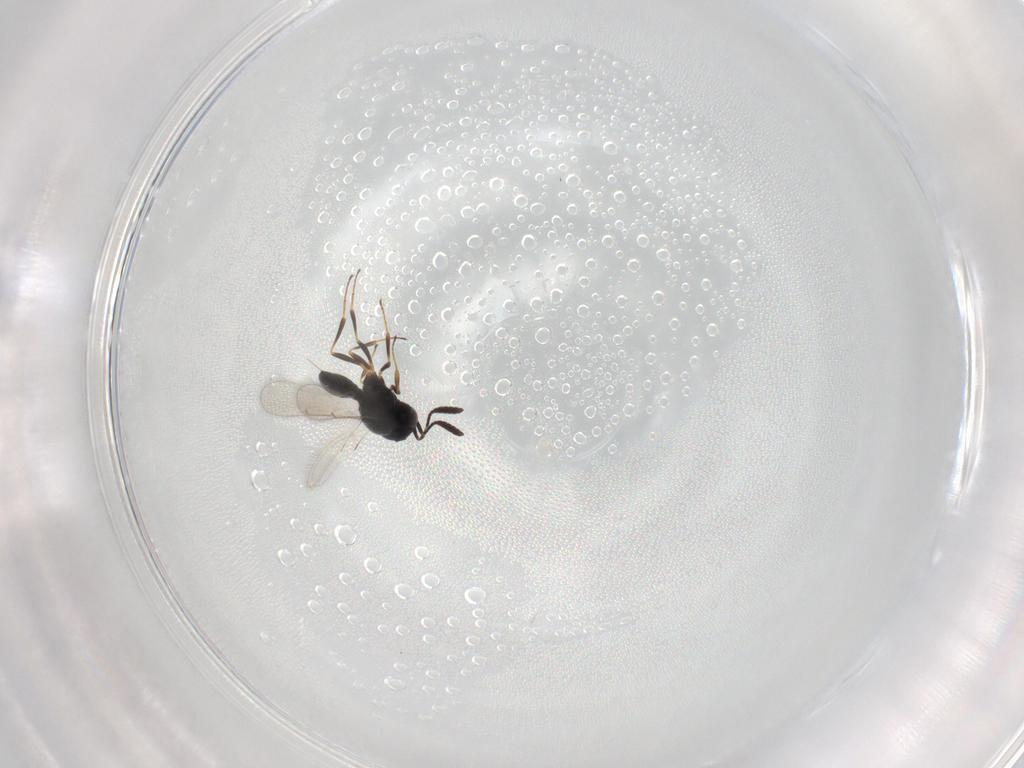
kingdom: Animalia
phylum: Arthropoda
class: Insecta
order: Hymenoptera
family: Scelionidae
